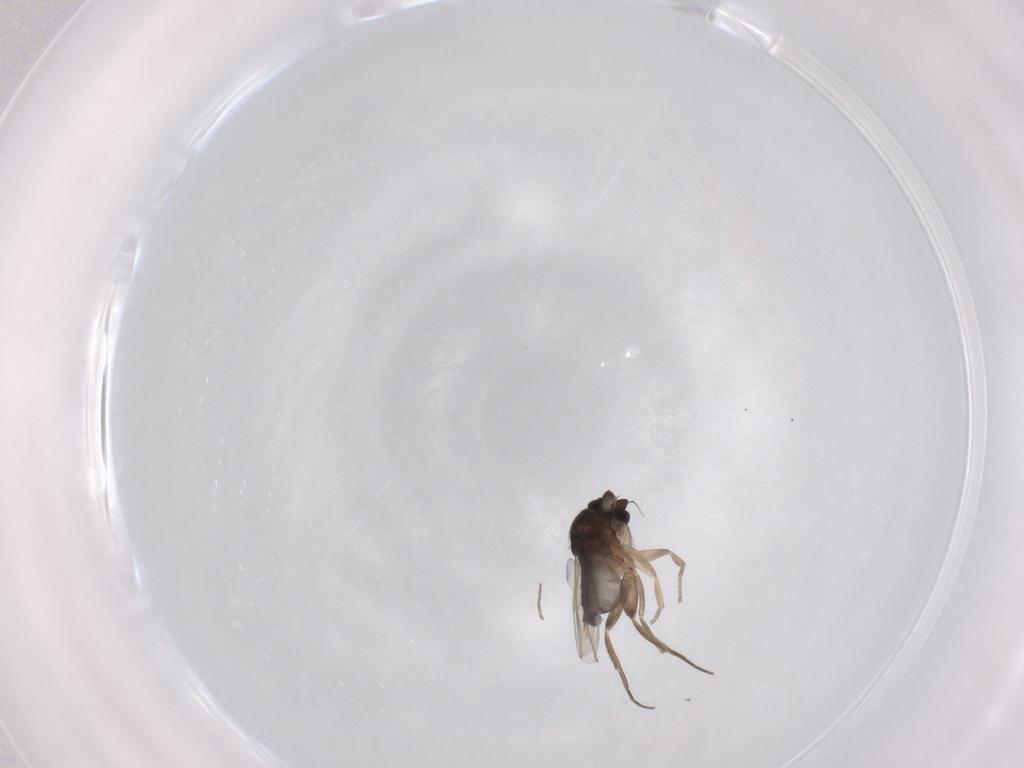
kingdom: Animalia
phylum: Arthropoda
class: Insecta
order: Diptera
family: Phoridae
